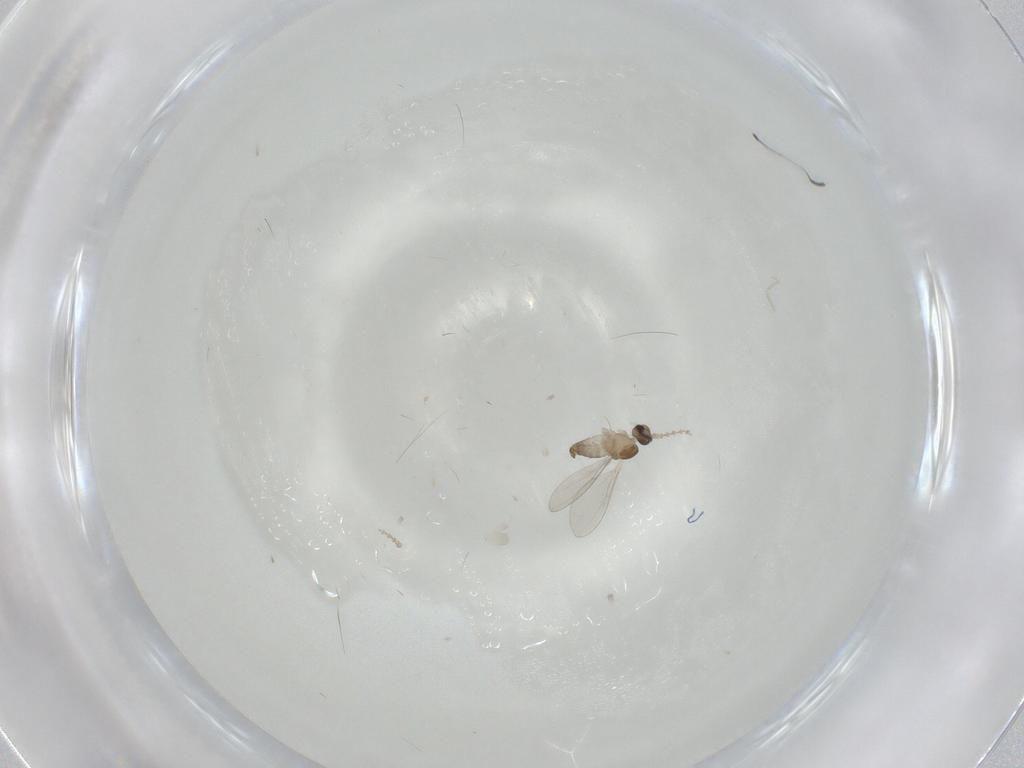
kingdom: Animalia
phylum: Arthropoda
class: Insecta
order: Diptera
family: Cecidomyiidae
